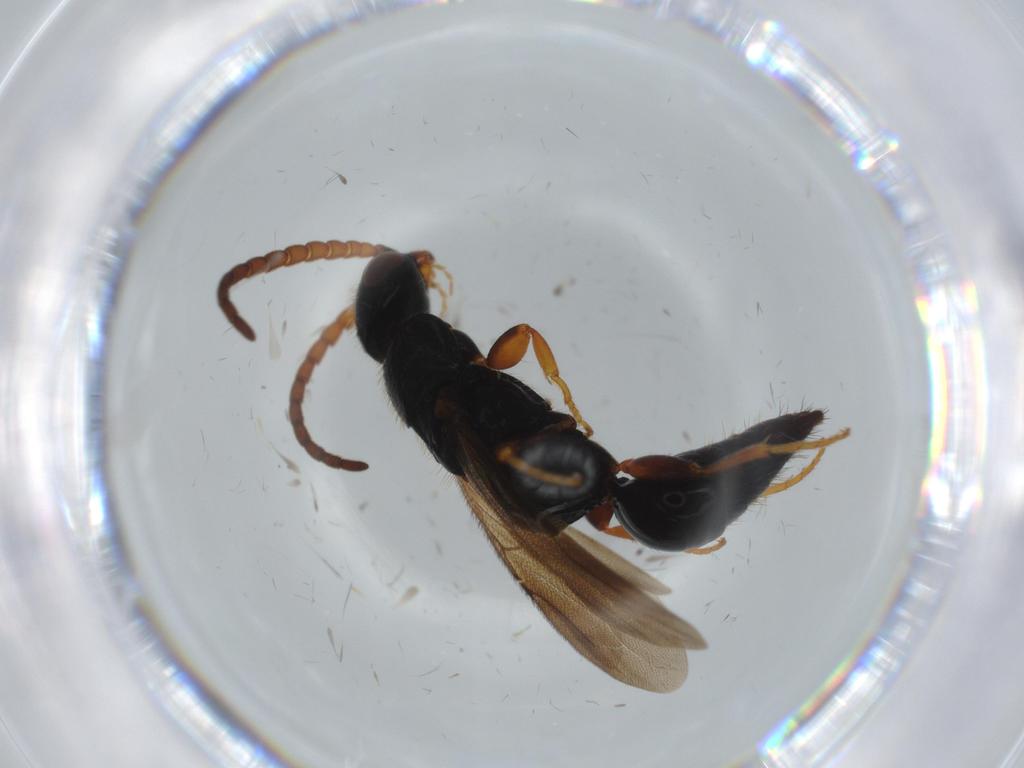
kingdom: Animalia
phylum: Arthropoda
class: Insecta
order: Hymenoptera
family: Bethylidae
